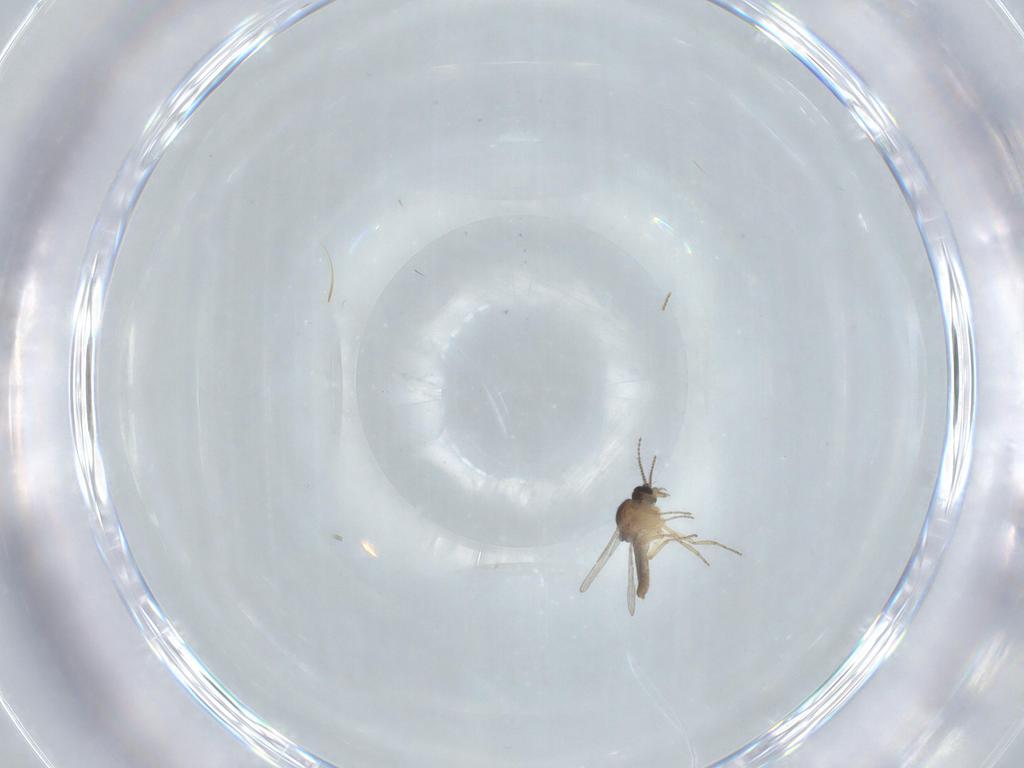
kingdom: Animalia
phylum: Arthropoda
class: Insecta
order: Diptera
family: Ceratopogonidae
